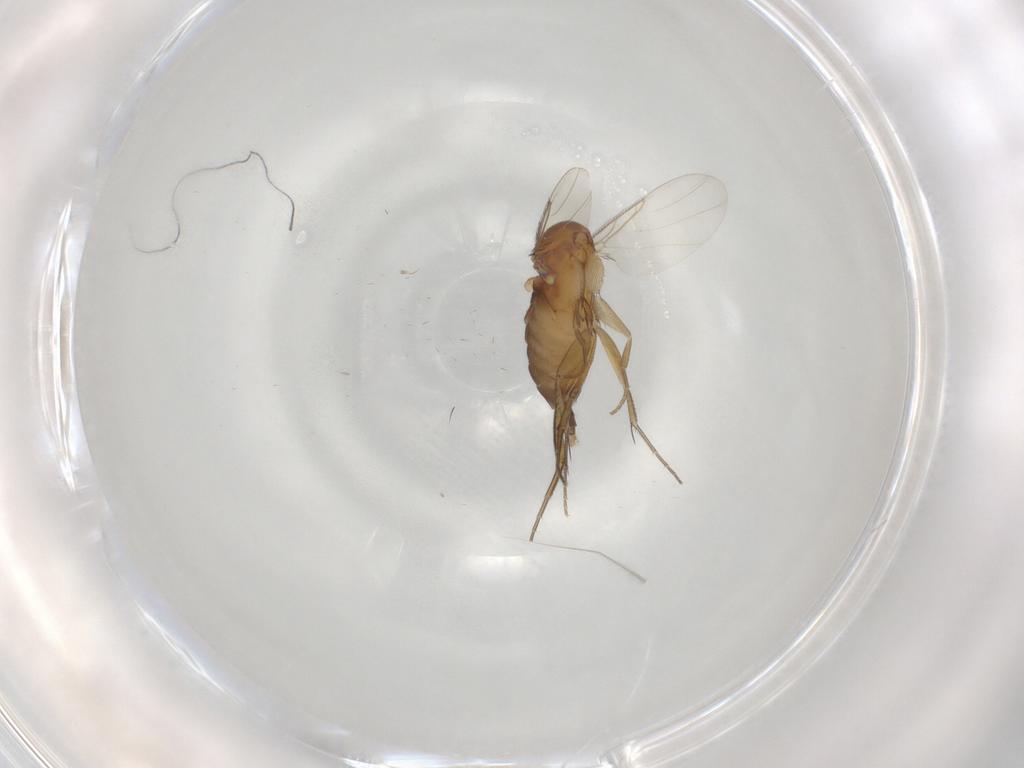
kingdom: Animalia
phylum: Arthropoda
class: Insecta
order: Diptera
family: Phoridae
